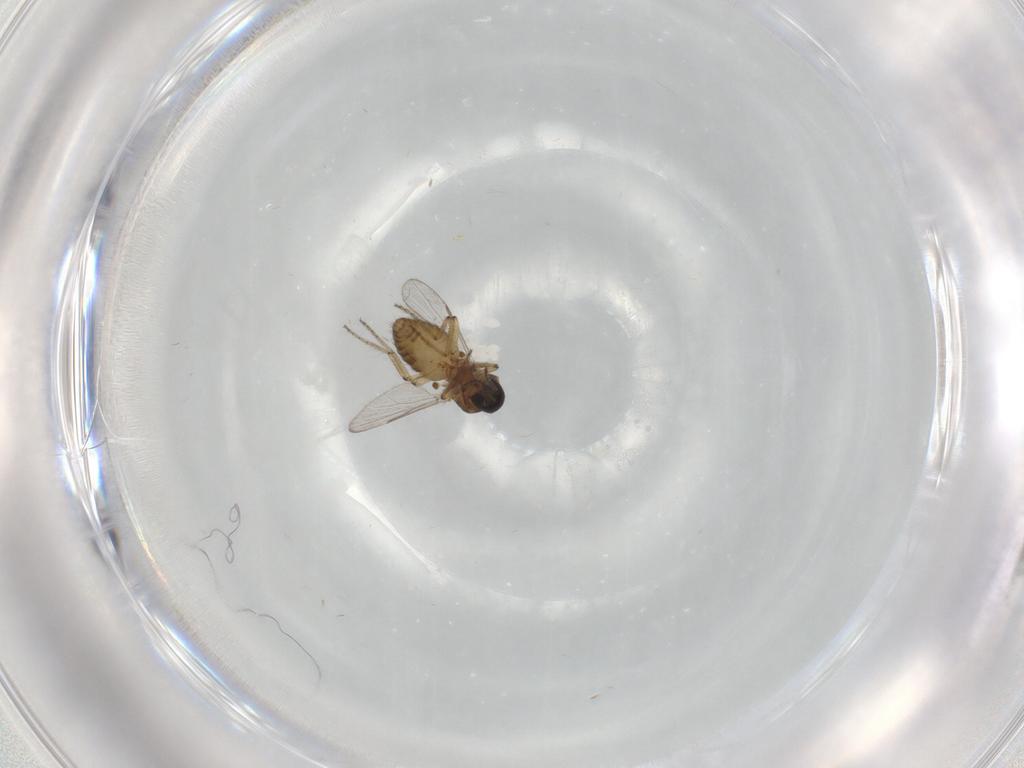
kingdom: Animalia
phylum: Arthropoda
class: Insecta
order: Diptera
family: Ceratopogonidae
